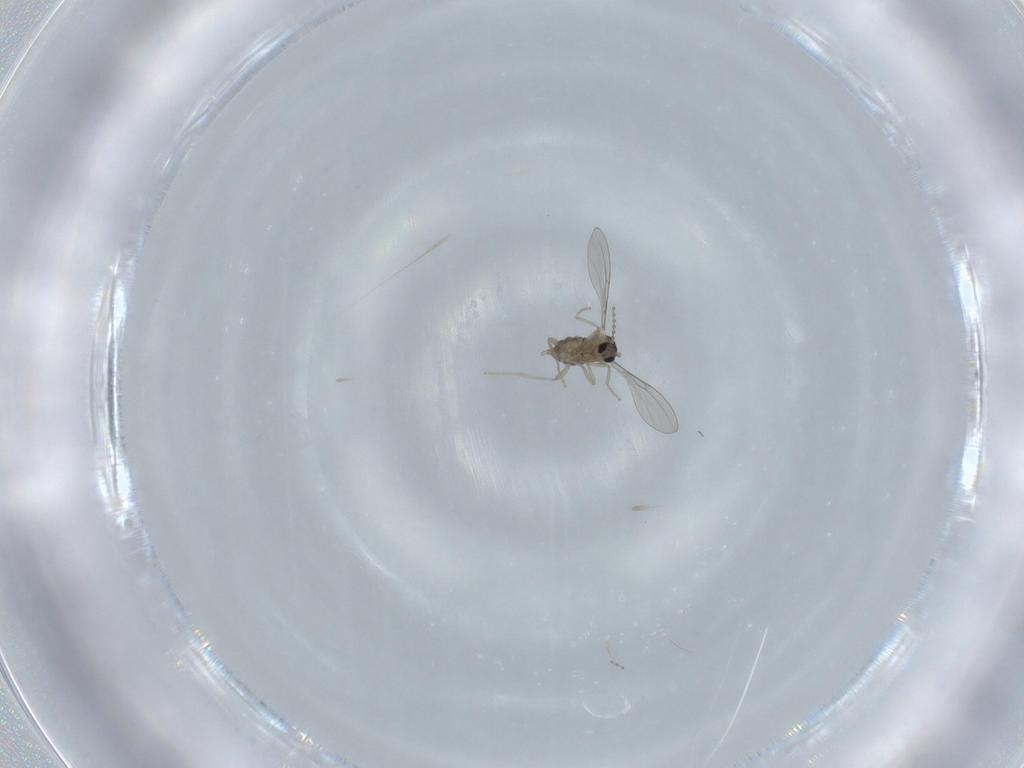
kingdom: Animalia
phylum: Arthropoda
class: Insecta
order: Diptera
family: Cecidomyiidae
